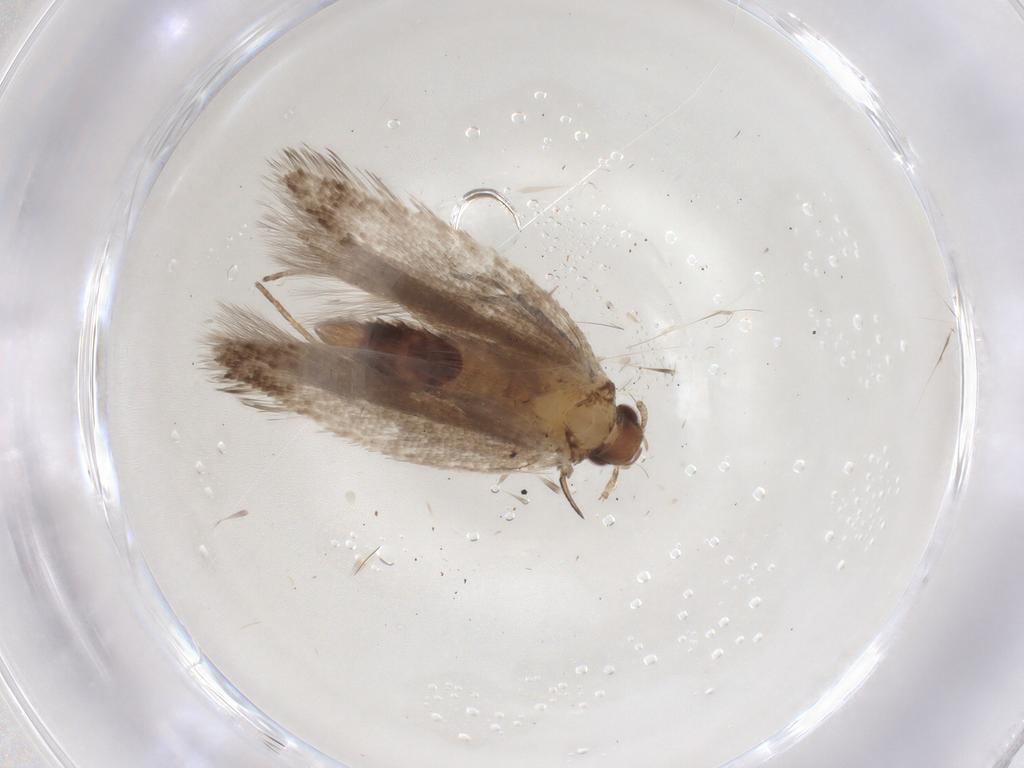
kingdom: Animalia
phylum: Arthropoda
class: Insecta
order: Lepidoptera
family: Gelechiidae
